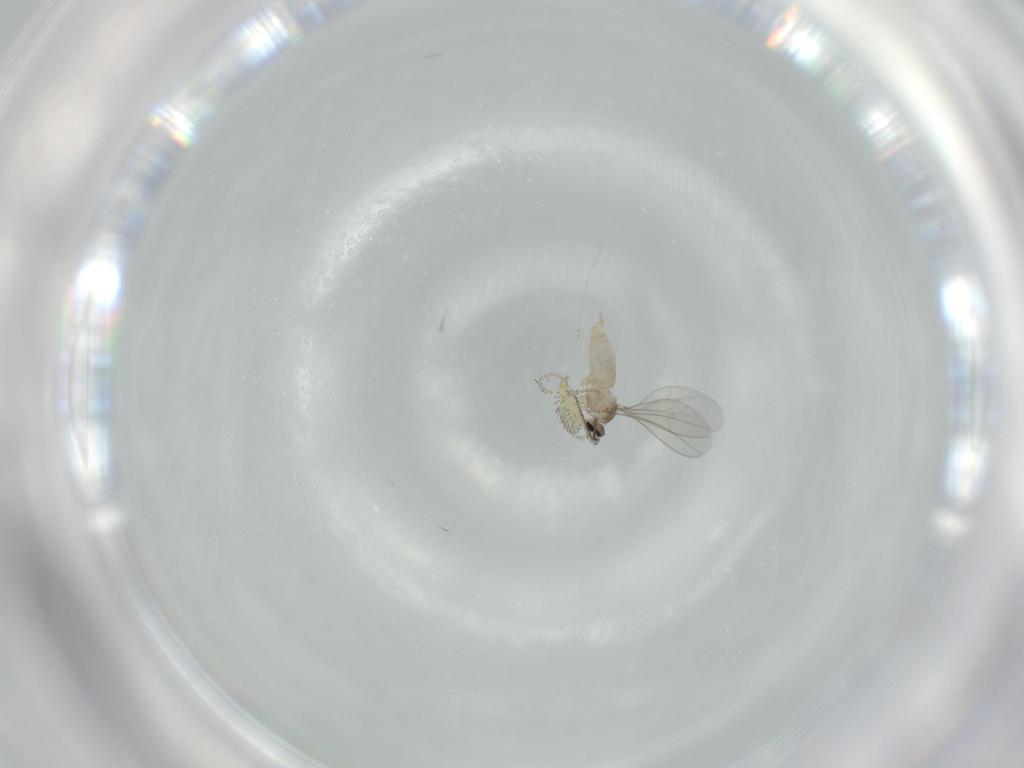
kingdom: Animalia
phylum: Arthropoda
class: Insecta
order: Diptera
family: Cecidomyiidae
